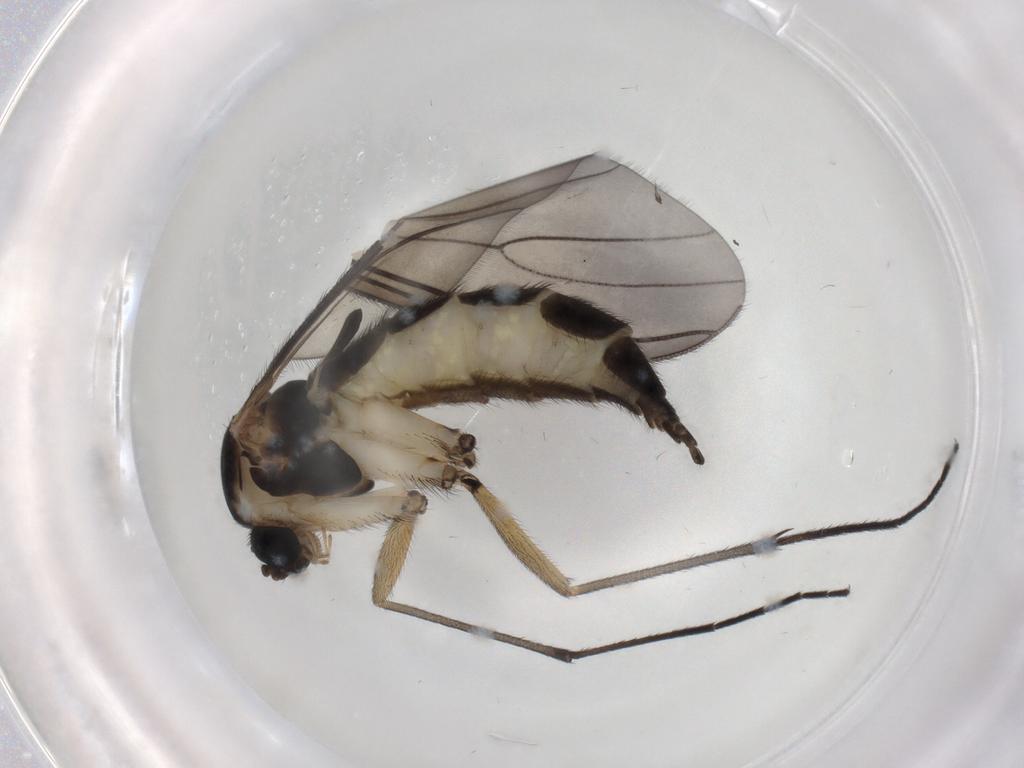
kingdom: Animalia
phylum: Arthropoda
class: Insecta
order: Diptera
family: Sciaridae
